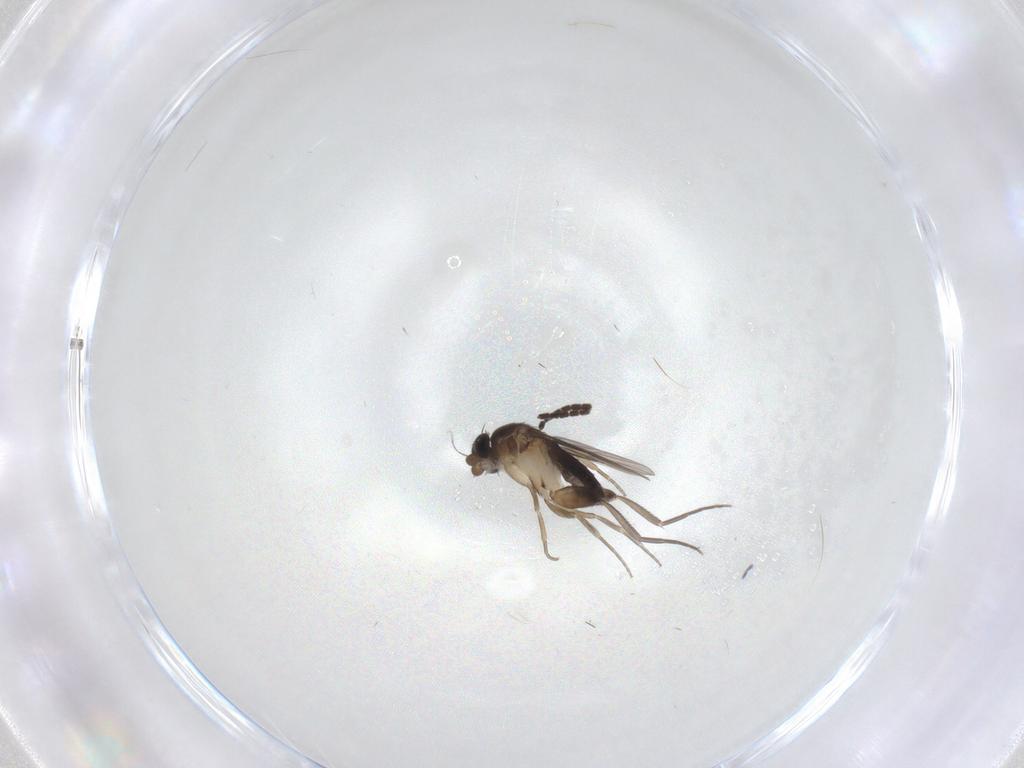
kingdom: Animalia
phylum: Arthropoda
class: Insecta
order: Diptera
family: Phoridae
